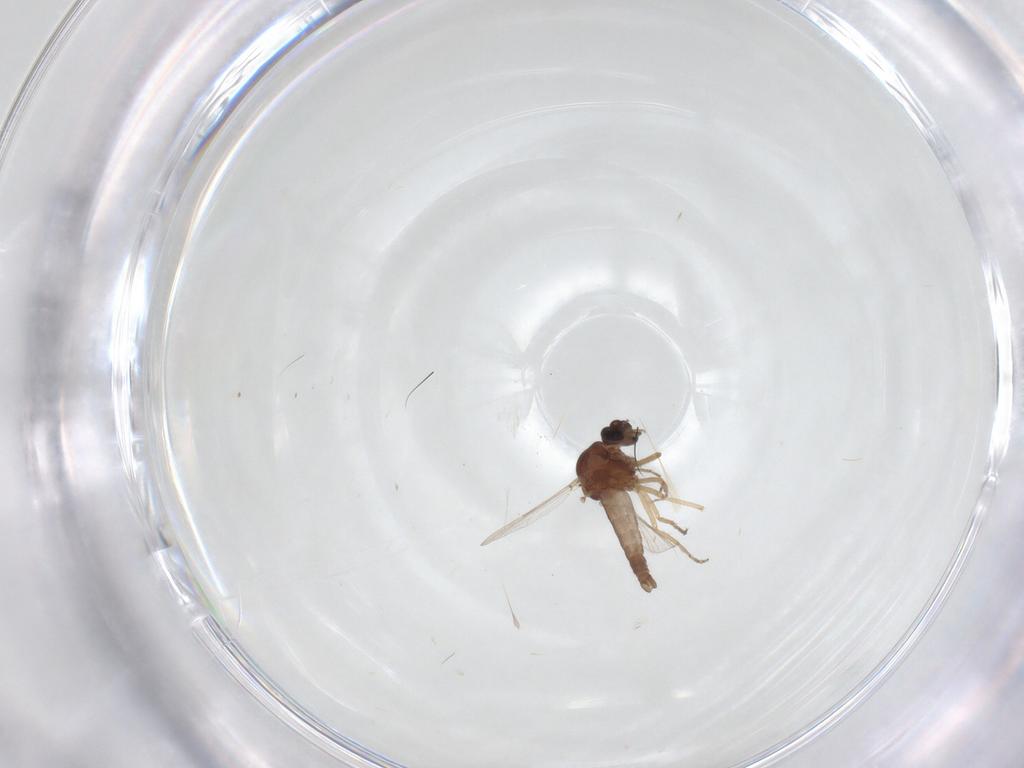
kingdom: Animalia
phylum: Arthropoda
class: Insecta
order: Diptera
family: Ceratopogonidae
